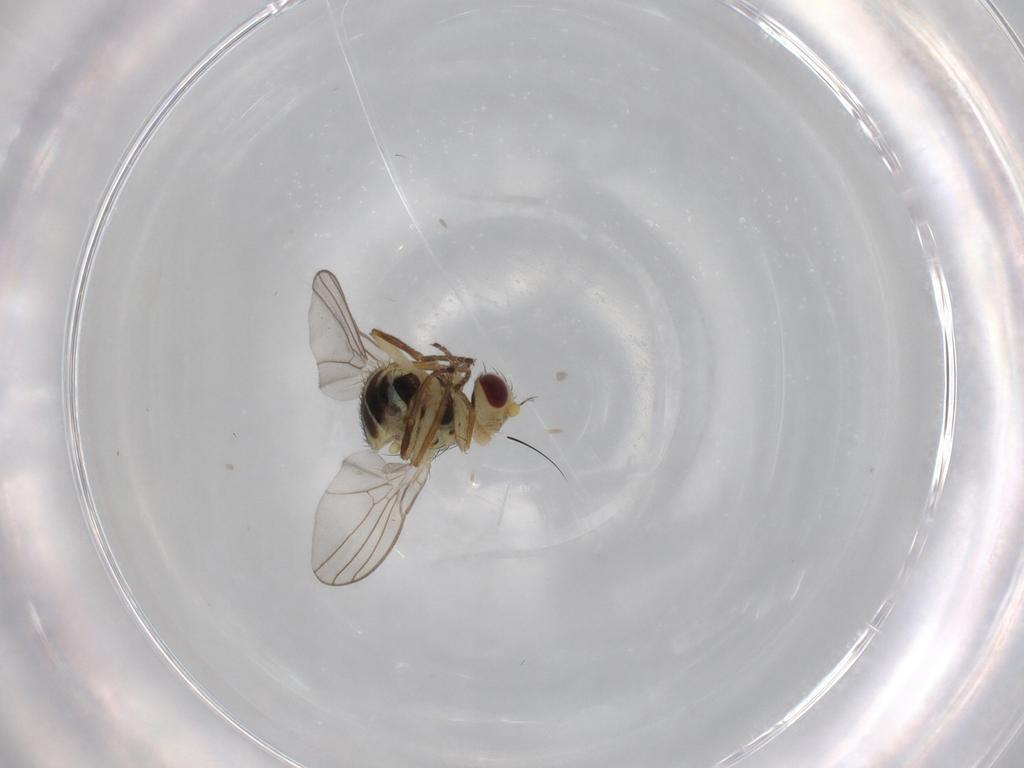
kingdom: Animalia
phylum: Arthropoda
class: Insecta
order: Diptera
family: Agromyzidae
